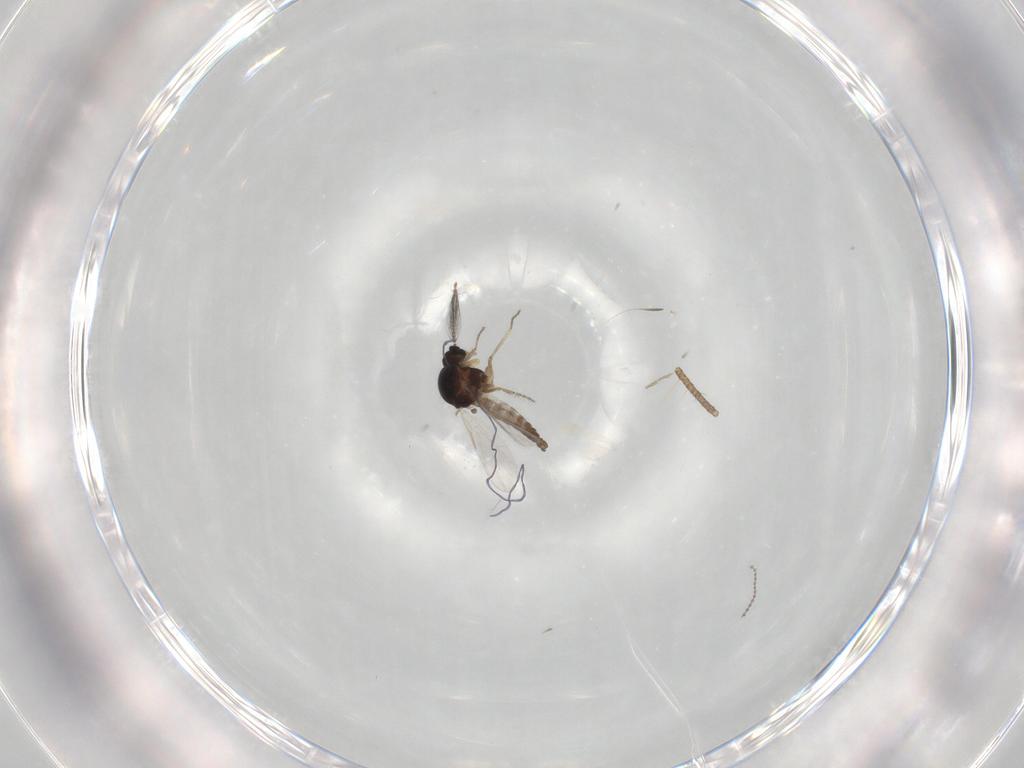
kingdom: Animalia
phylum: Arthropoda
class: Insecta
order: Diptera
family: Ceratopogonidae
